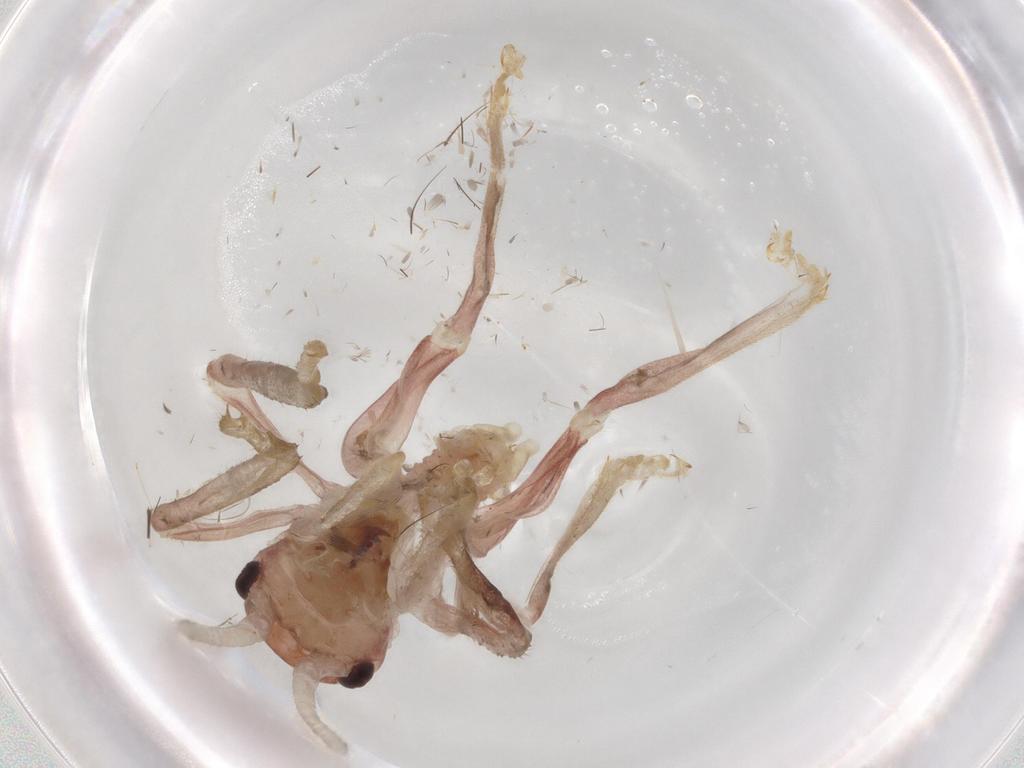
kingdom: Animalia
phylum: Arthropoda
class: Insecta
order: Orthoptera
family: Gryllacrididae
